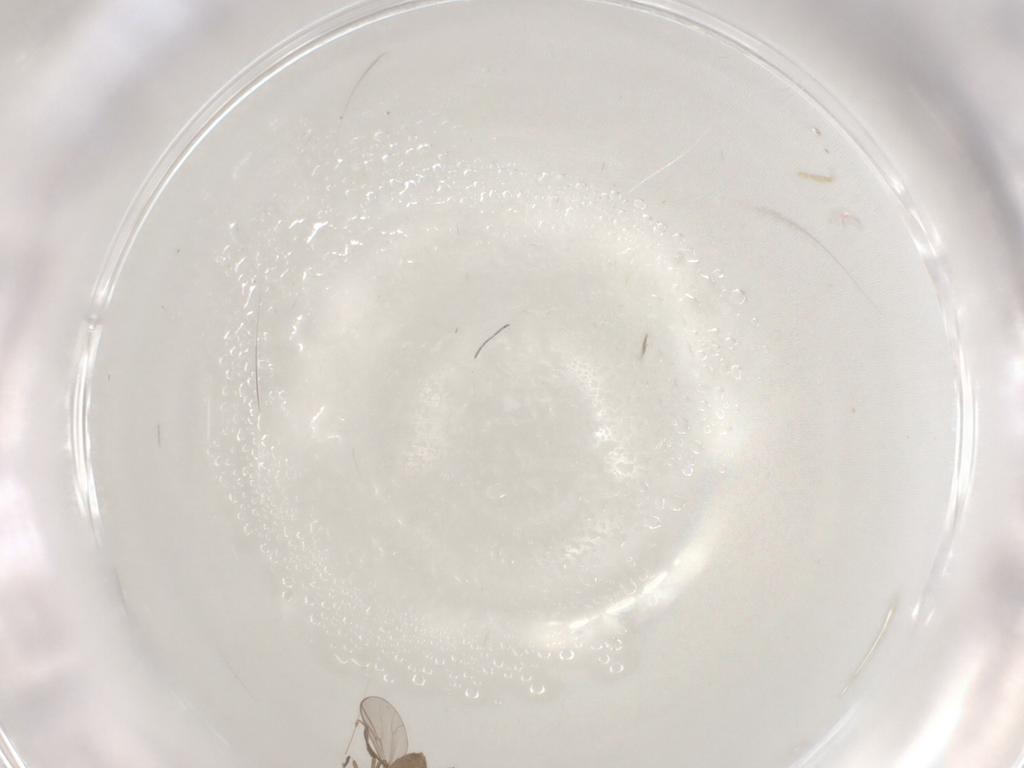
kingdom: Animalia
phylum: Arthropoda
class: Insecta
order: Diptera
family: Chironomidae
